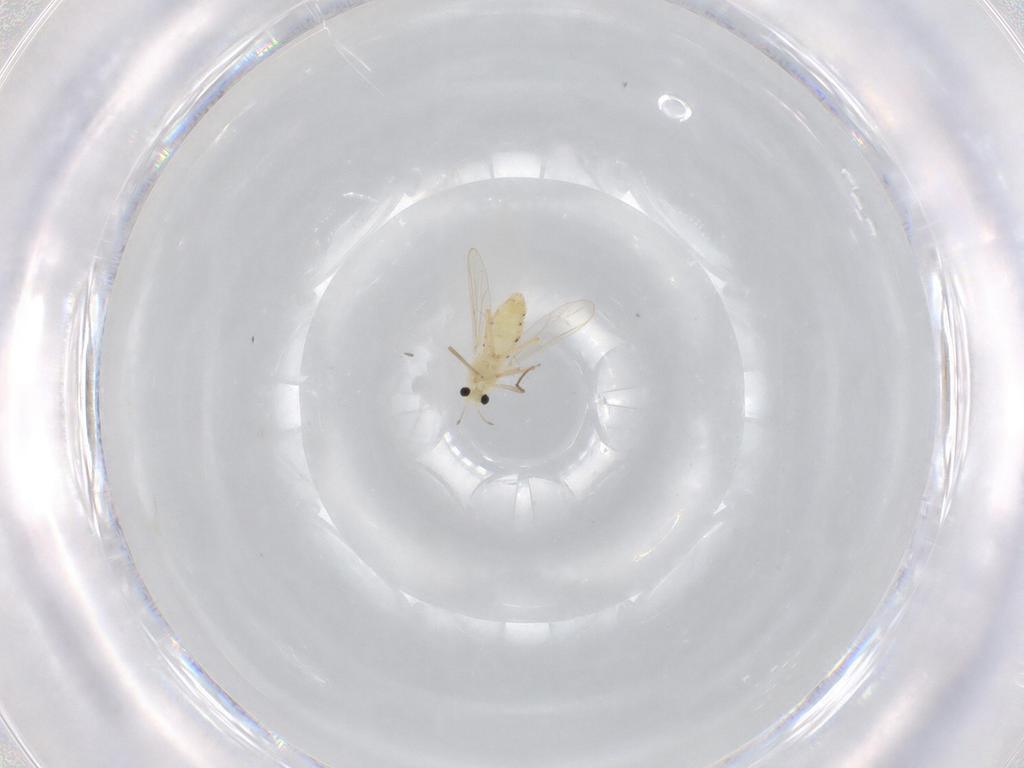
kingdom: Animalia
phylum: Arthropoda
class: Insecta
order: Diptera
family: Chironomidae
